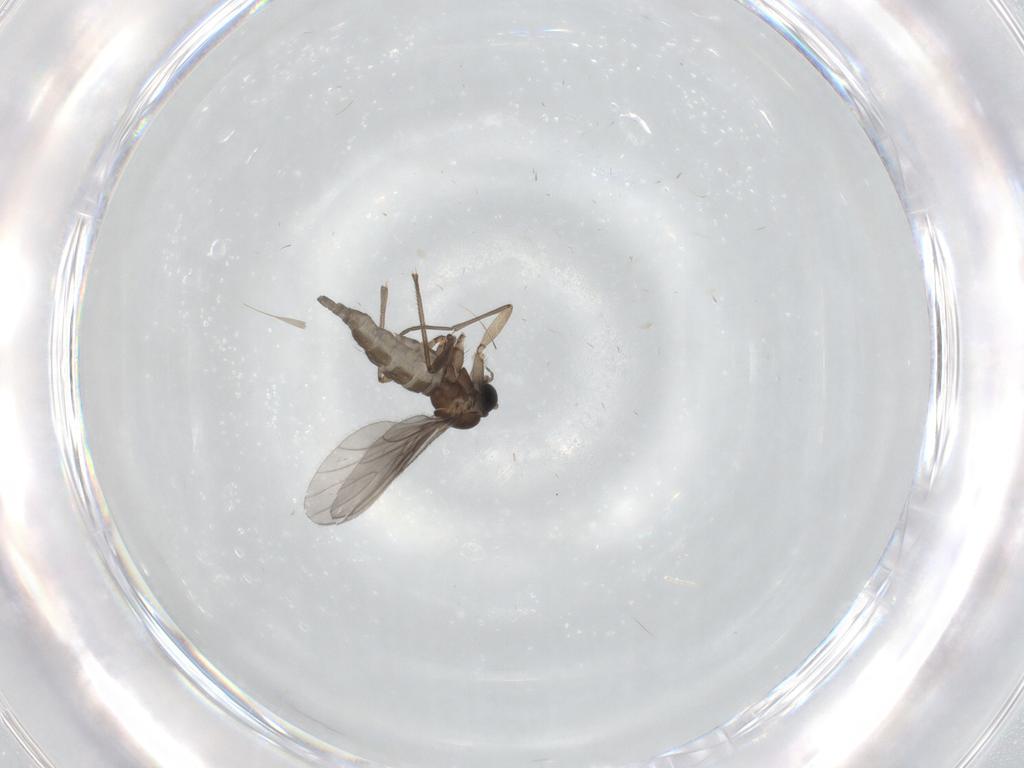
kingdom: Animalia
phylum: Arthropoda
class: Insecta
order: Diptera
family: Sciaridae
